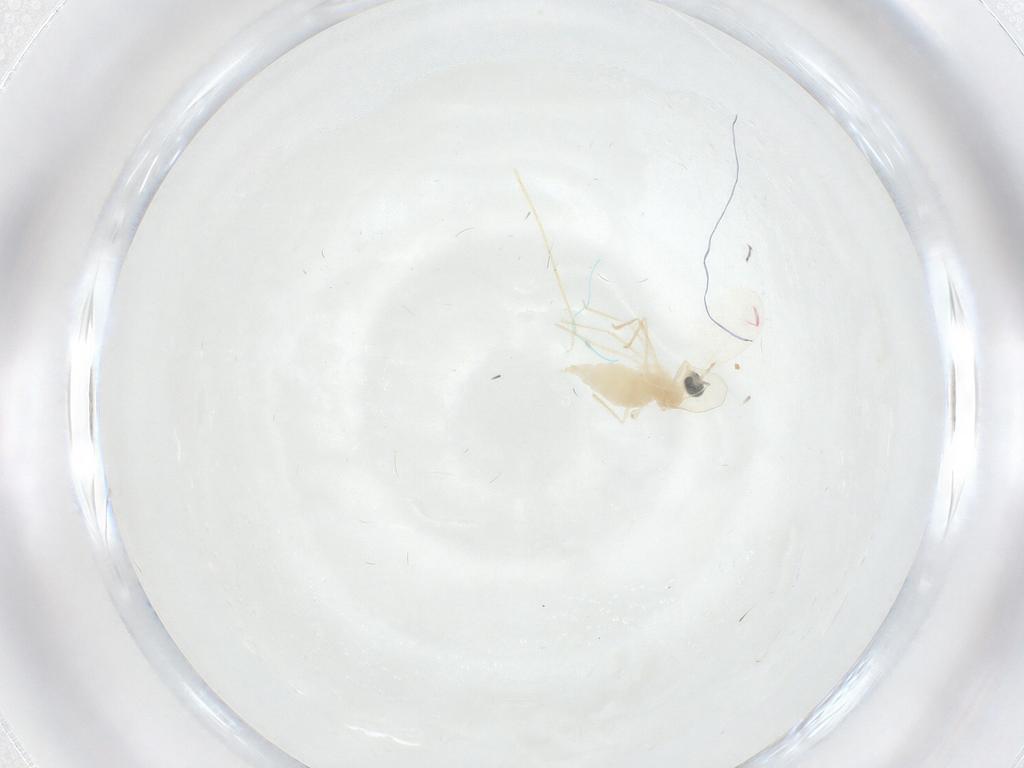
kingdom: Animalia
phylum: Arthropoda
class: Insecta
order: Diptera
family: Cecidomyiidae
